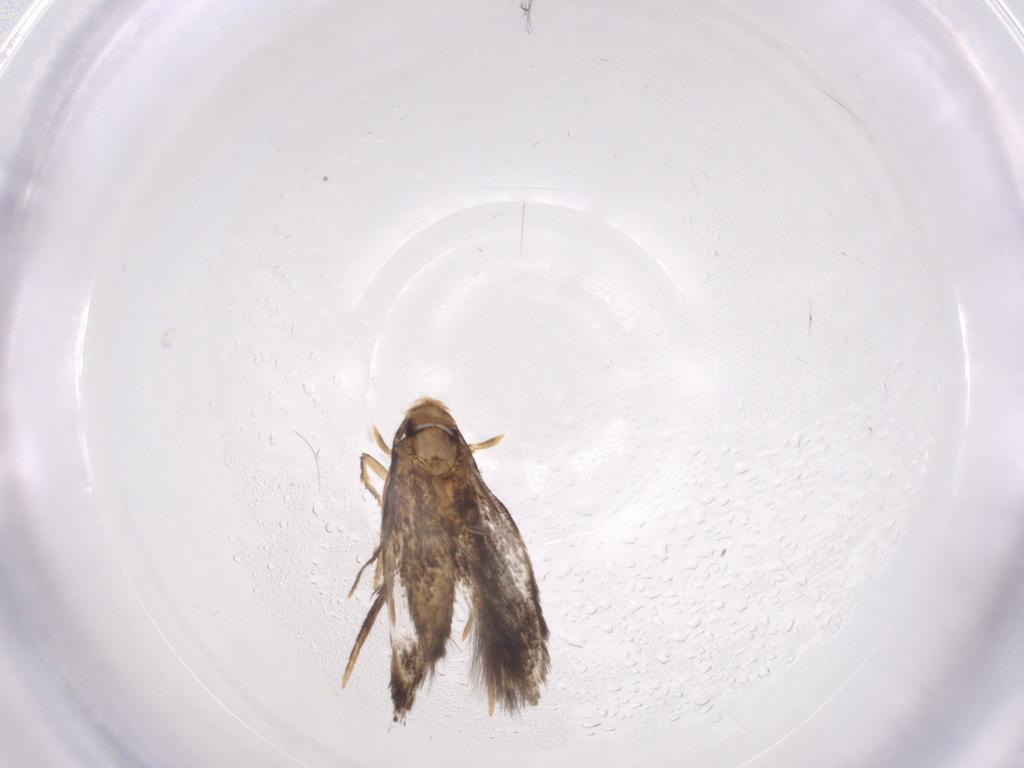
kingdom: Animalia
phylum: Arthropoda
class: Insecta
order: Lepidoptera
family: Gelechiidae
